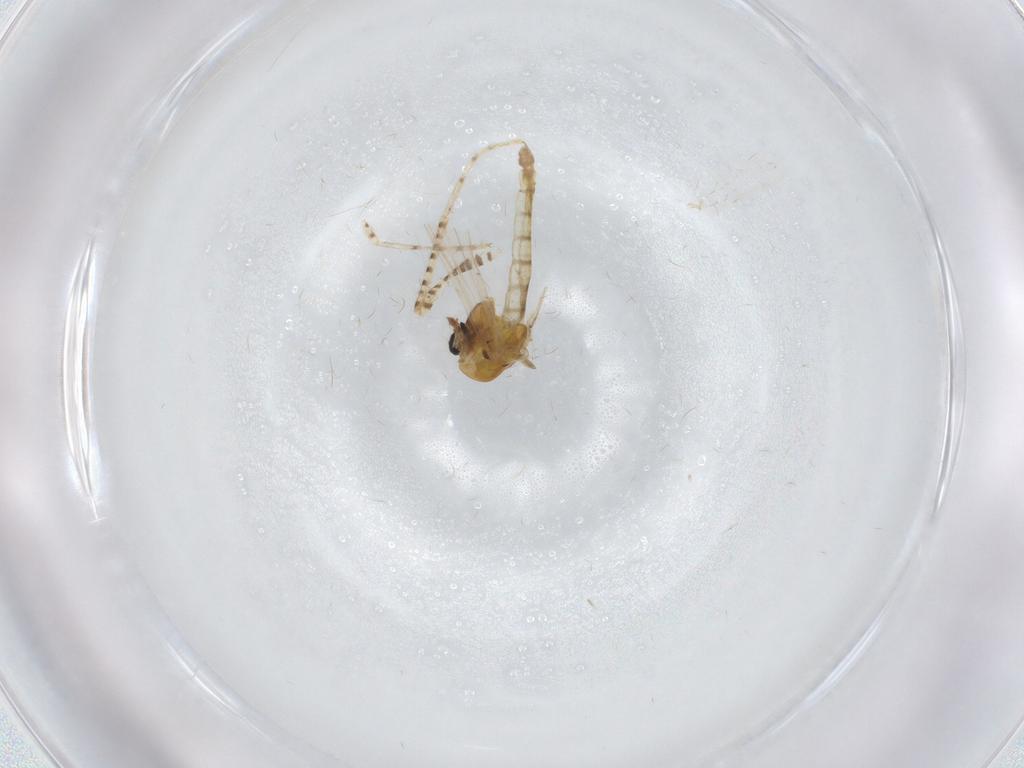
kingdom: Animalia
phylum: Arthropoda
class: Insecta
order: Diptera
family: Chironomidae
